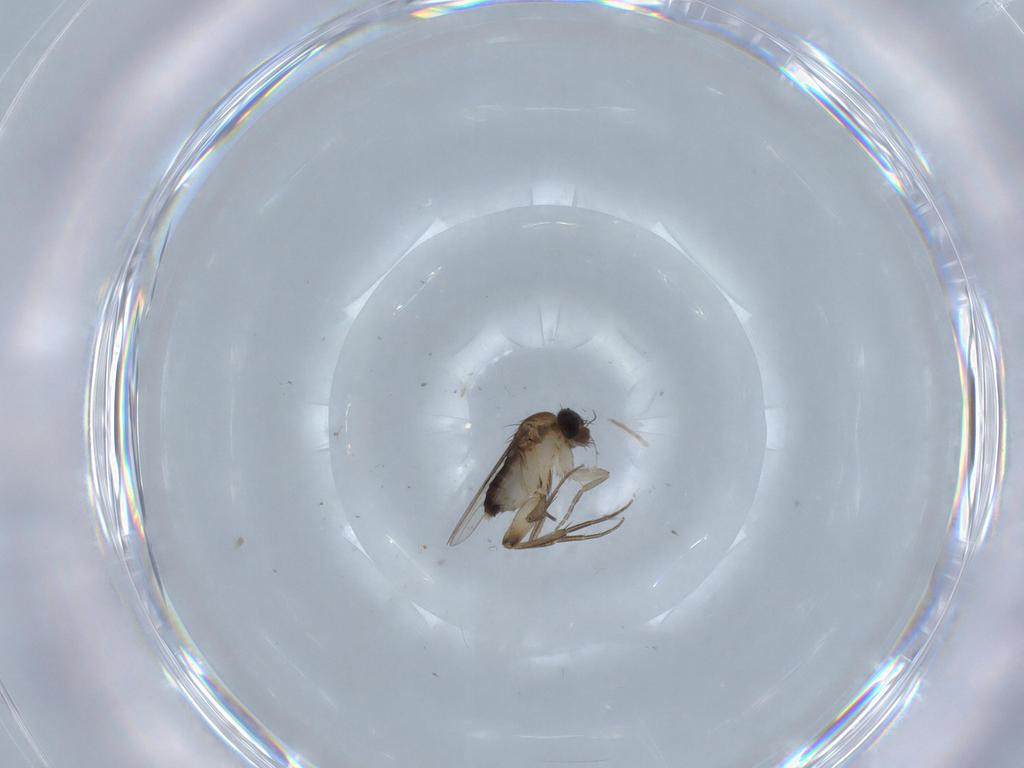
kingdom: Animalia
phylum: Arthropoda
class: Insecta
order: Diptera
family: Phoridae
